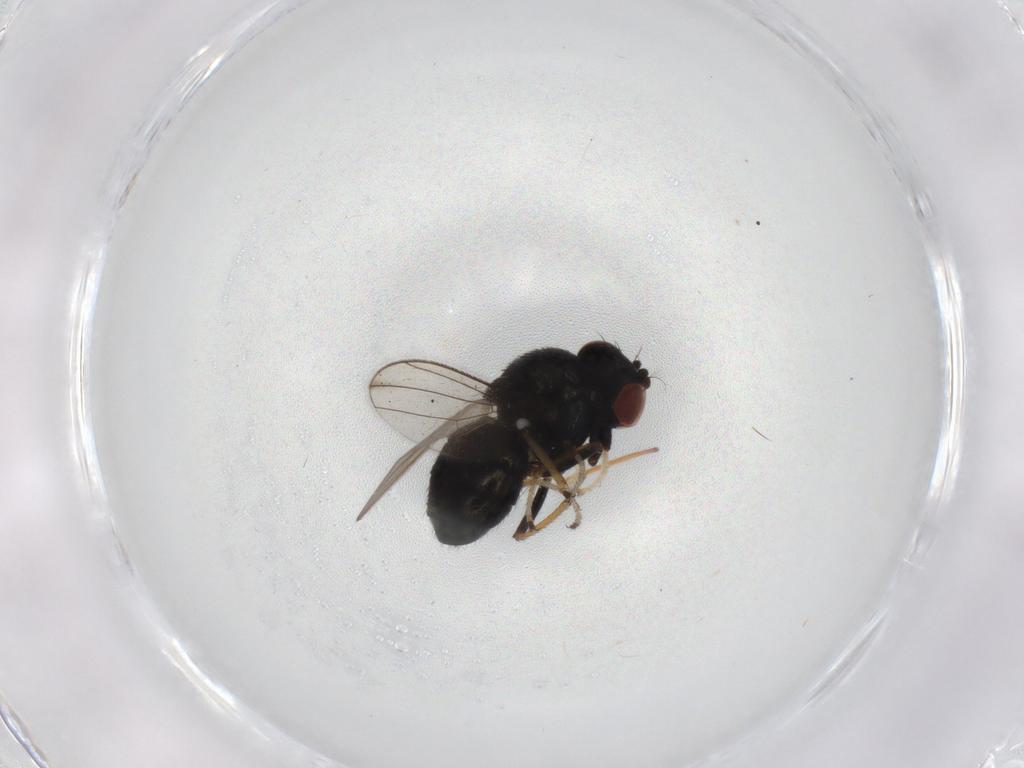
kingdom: Animalia
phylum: Arthropoda
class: Insecta
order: Diptera
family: Ephydridae
